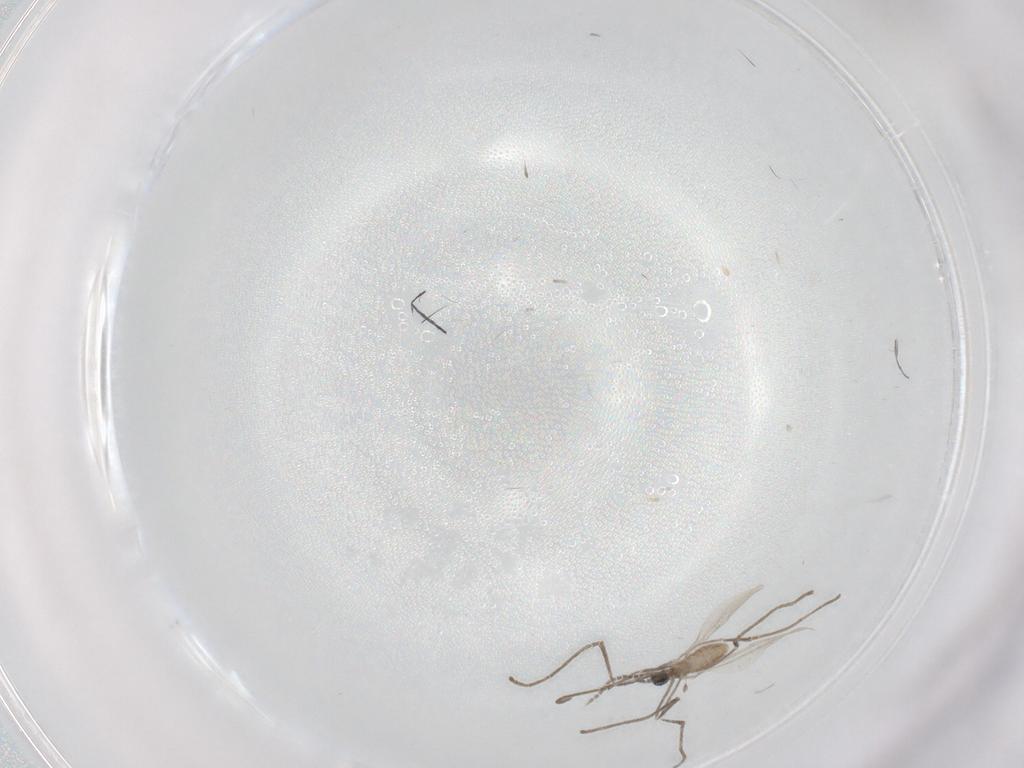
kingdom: Animalia
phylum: Arthropoda
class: Insecta
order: Diptera
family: Cecidomyiidae
